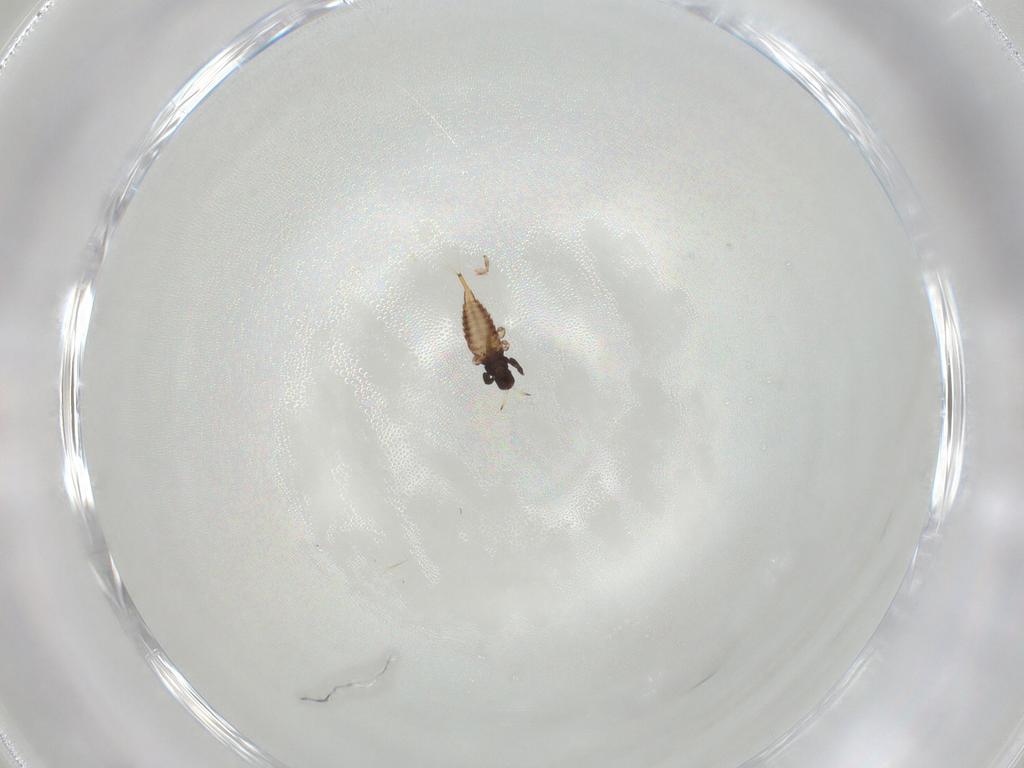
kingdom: Animalia
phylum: Arthropoda
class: Insecta
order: Thysanoptera
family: Phlaeothripidae
